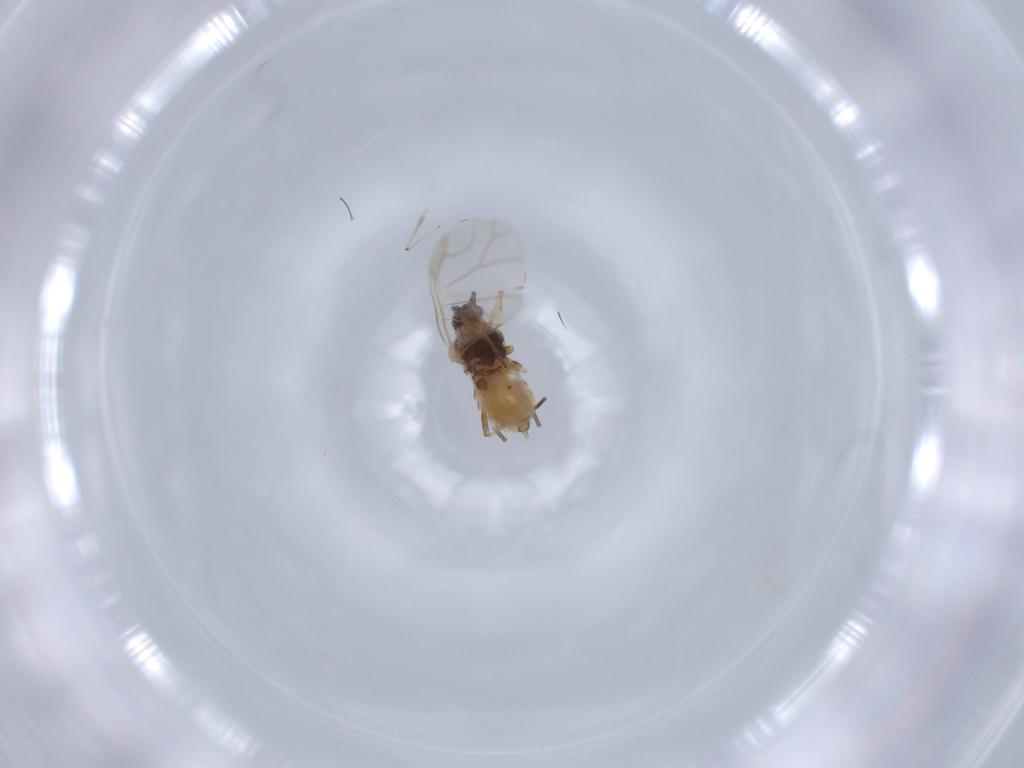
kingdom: Animalia
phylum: Arthropoda
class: Insecta
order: Hemiptera
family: Aphididae
